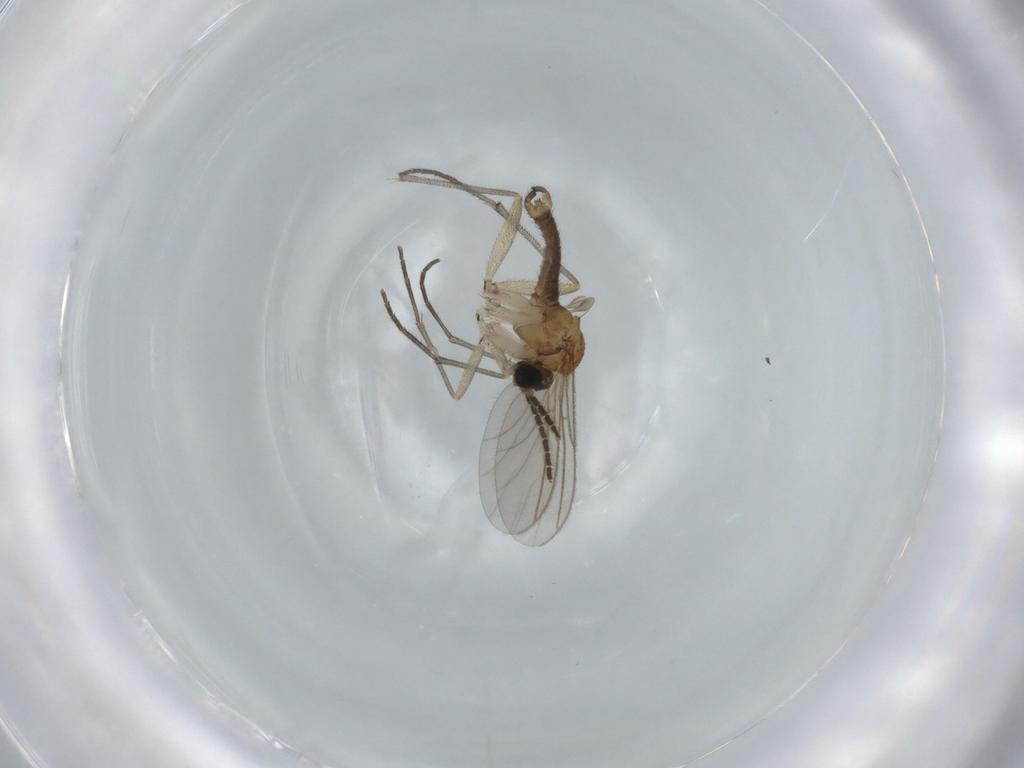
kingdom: Animalia
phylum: Arthropoda
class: Insecta
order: Diptera
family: Sciaridae
